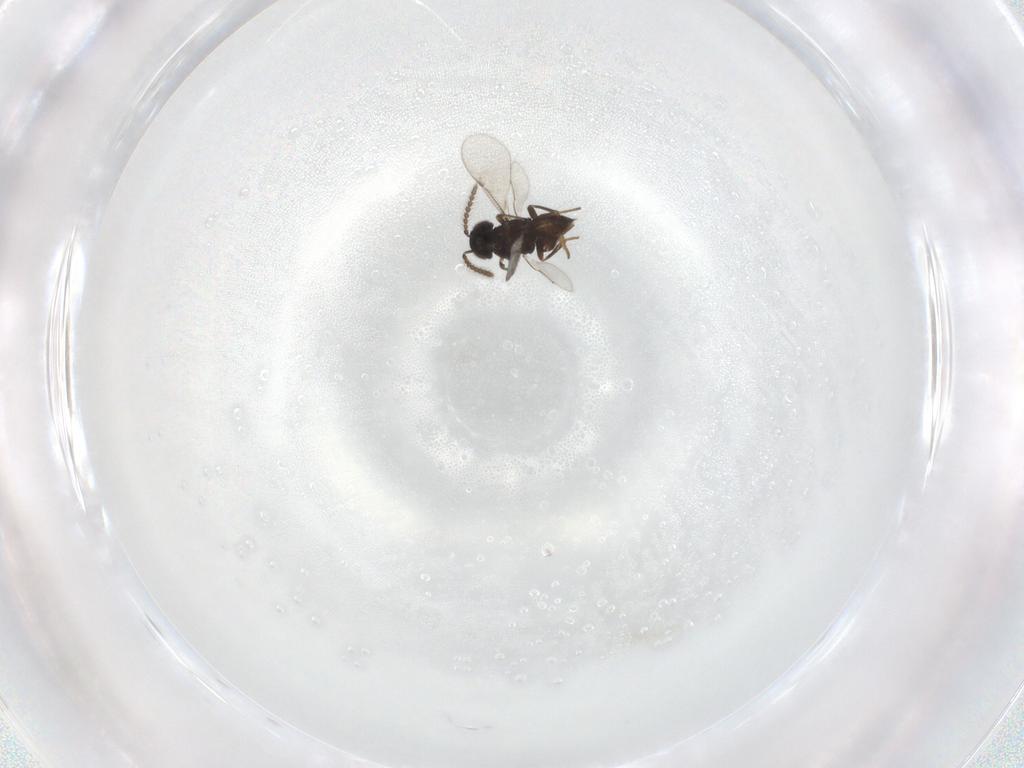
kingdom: Animalia
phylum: Arthropoda
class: Insecta
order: Hymenoptera
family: Encyrtidae
